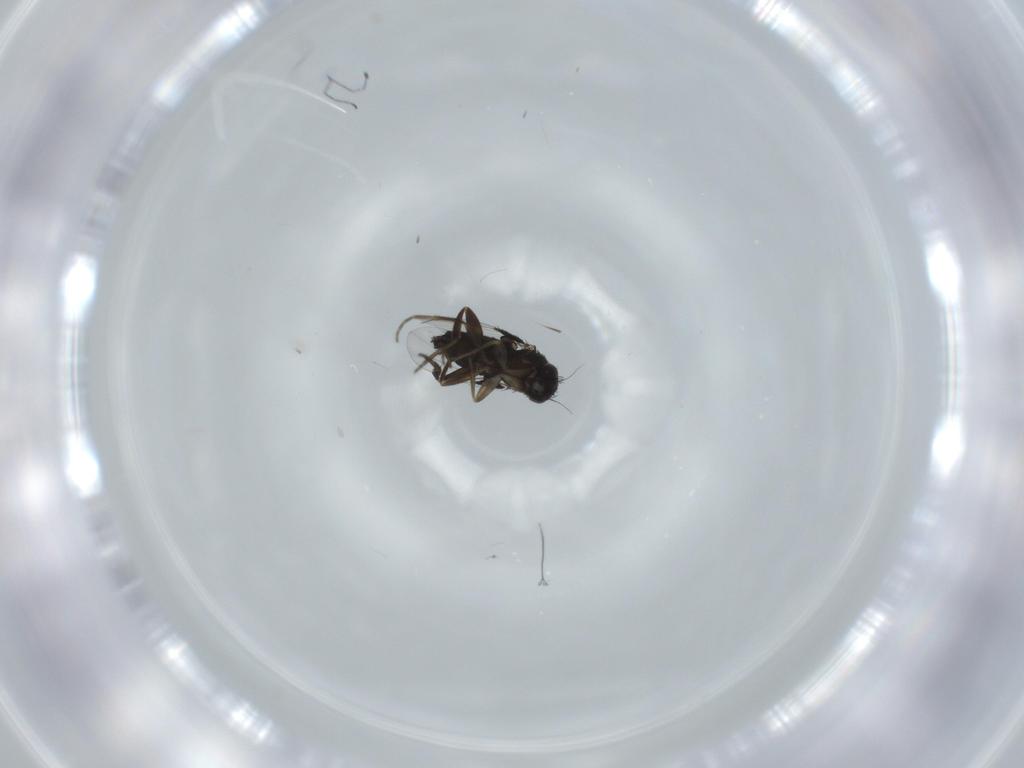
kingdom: Animalia
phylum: Arthropoda
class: Insecta
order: Diptera
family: Phoridae
